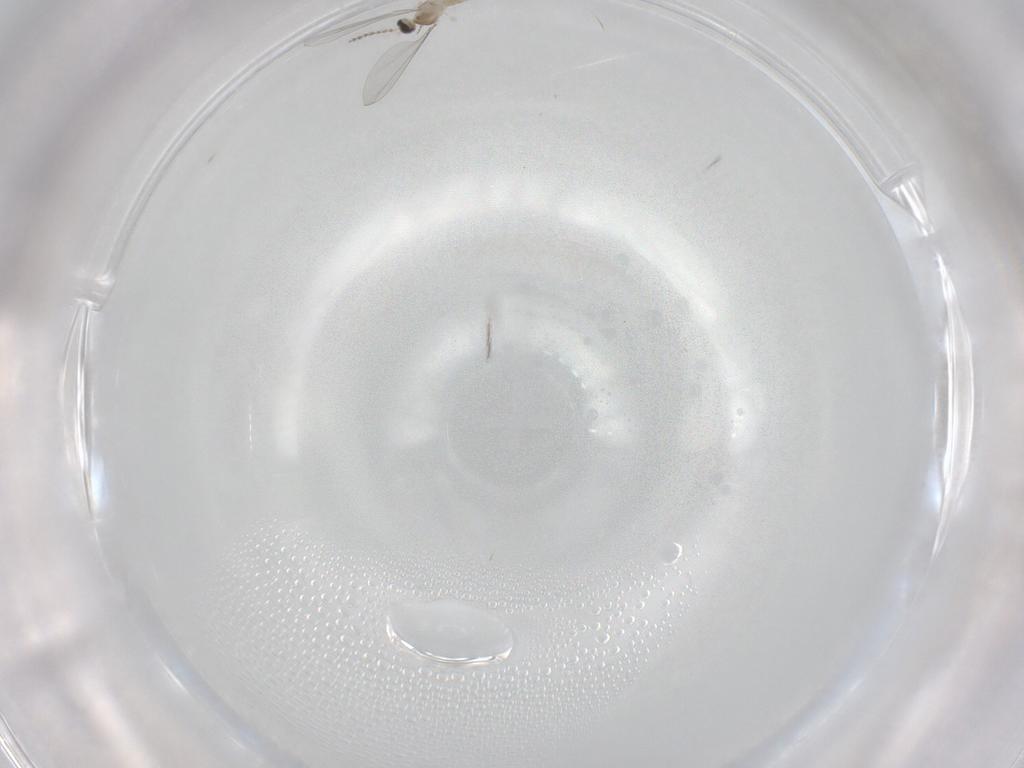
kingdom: Animalia
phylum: Arthropoda
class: Insecta
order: Diptera
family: Cecidomyiidae
